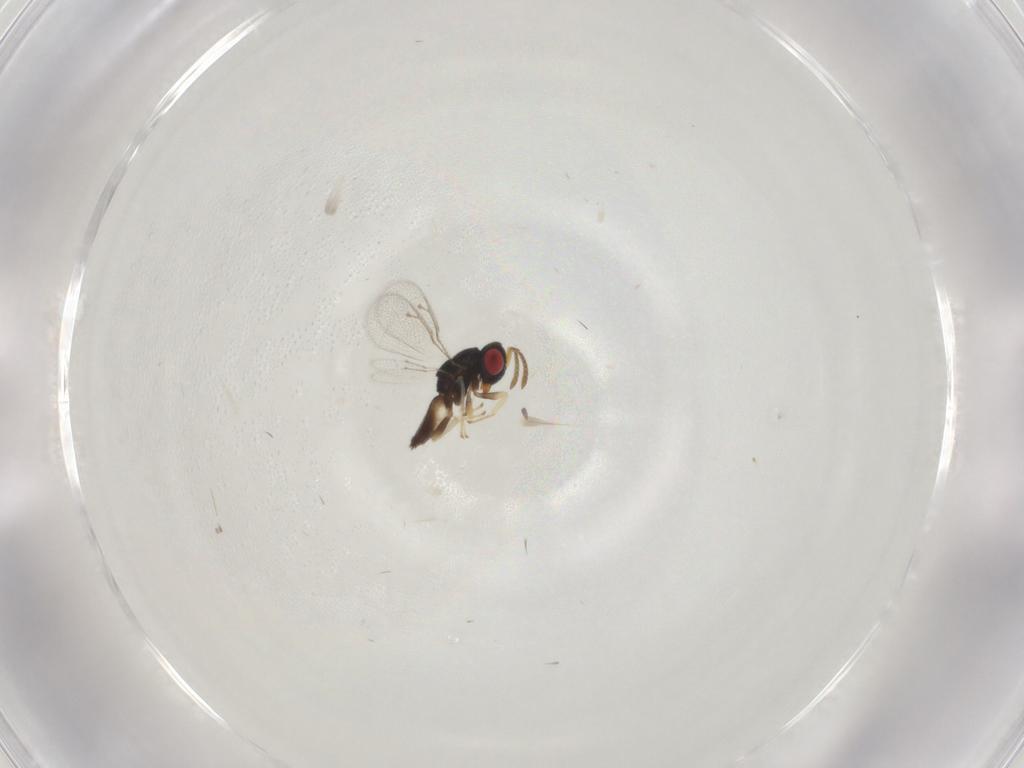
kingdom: Animalia
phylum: Arthropoda
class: Insecta
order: Hymenoptera
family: Vespidae
